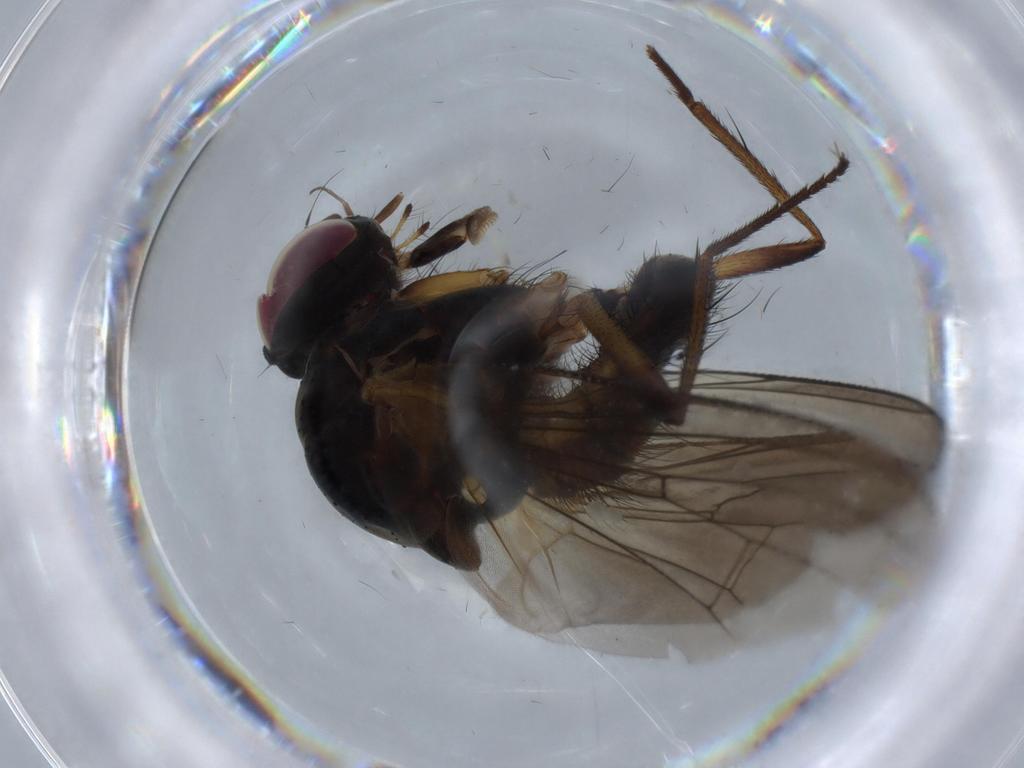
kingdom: Animalia
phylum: Arthropoda
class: Insecta
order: Diptera
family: Anthomyiidae
